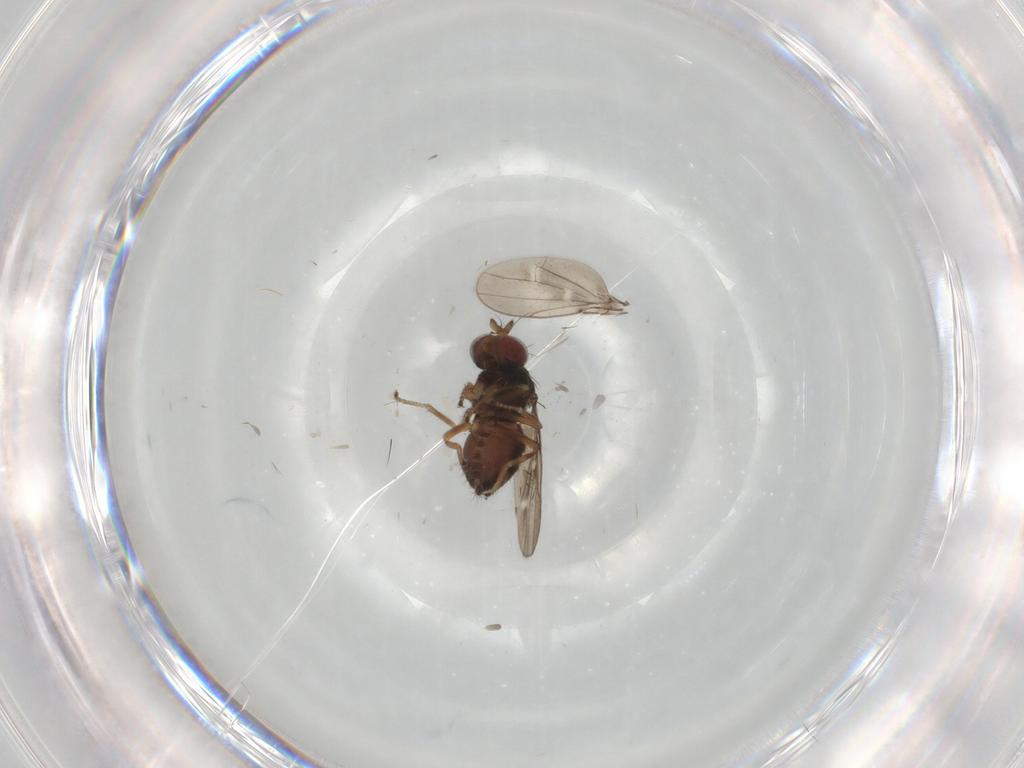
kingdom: Animalia
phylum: Arthropoda
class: Insecta
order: Diptera
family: Ephydridae
